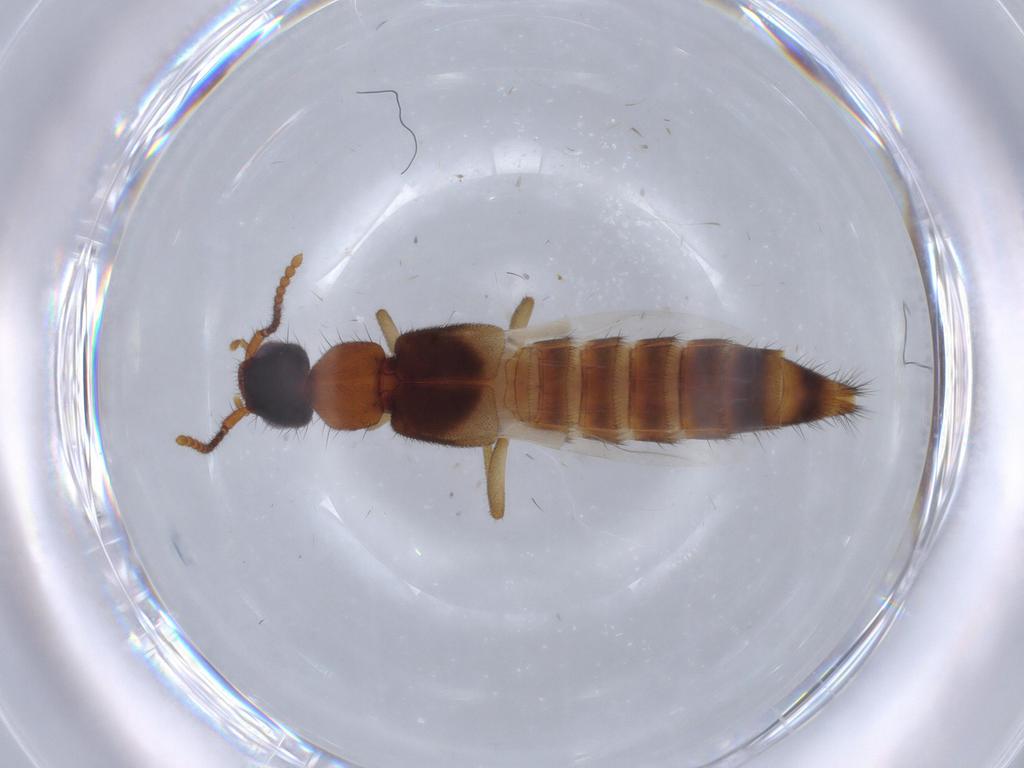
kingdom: Animalia
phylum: Arthropoda
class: Insecta
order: Coleoptera
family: Staphylinidae
